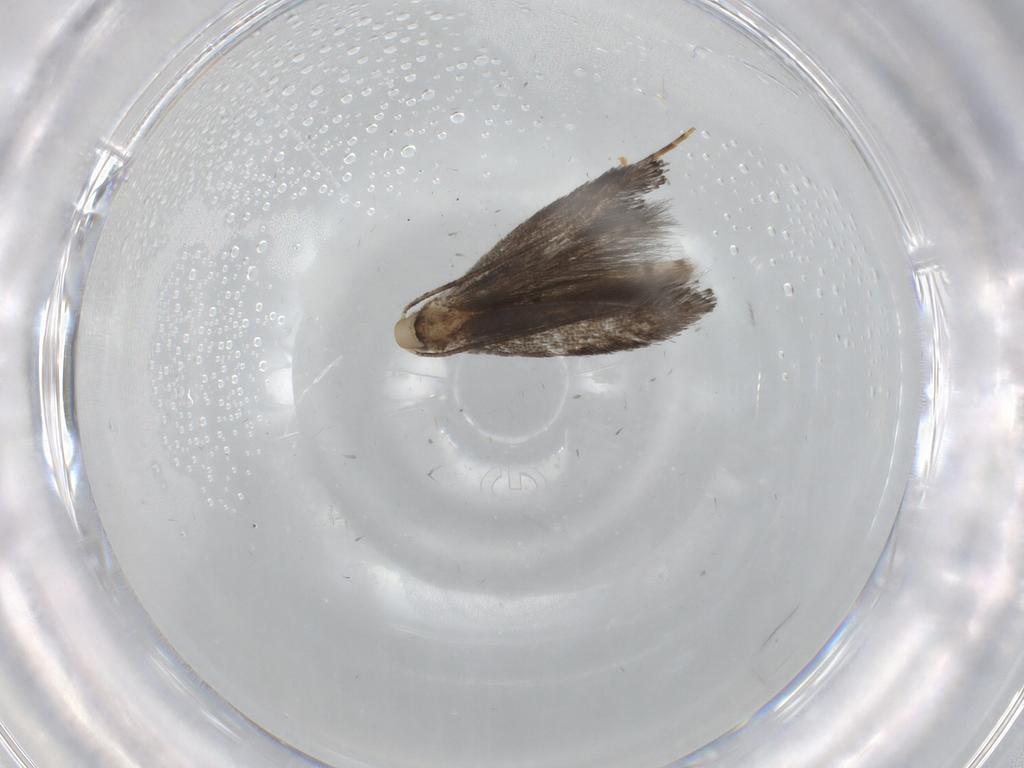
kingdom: Animalia
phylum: Arthropoda
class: Insecta
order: Lepidoptera
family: Gracillariidae
